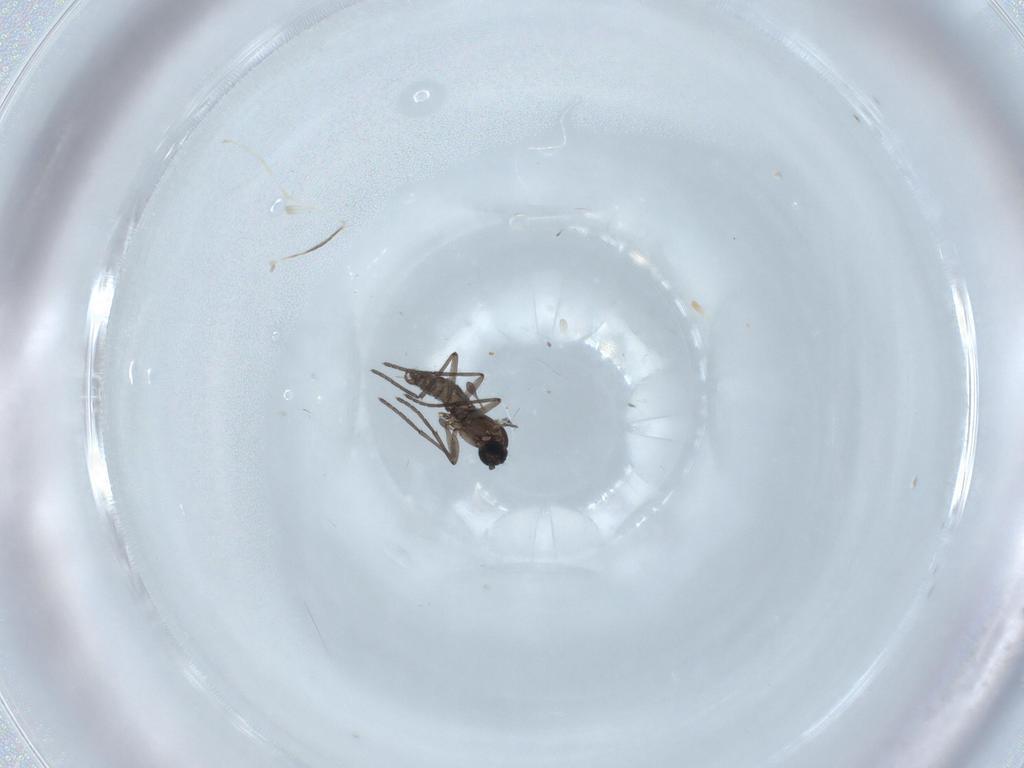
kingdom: Animalia
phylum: Arthropoda
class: Insecta
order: Diptera
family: Sciaridae
